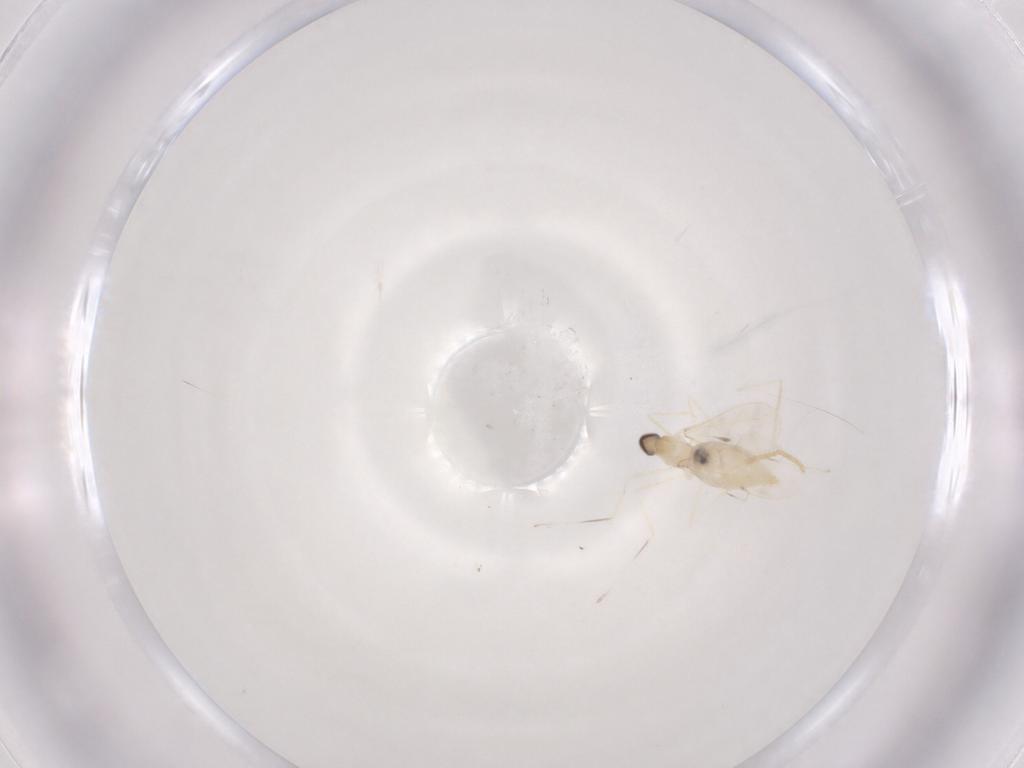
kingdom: Animalia
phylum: Arthropoda
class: Insecta
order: Diptera
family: Cecidomyiidae
